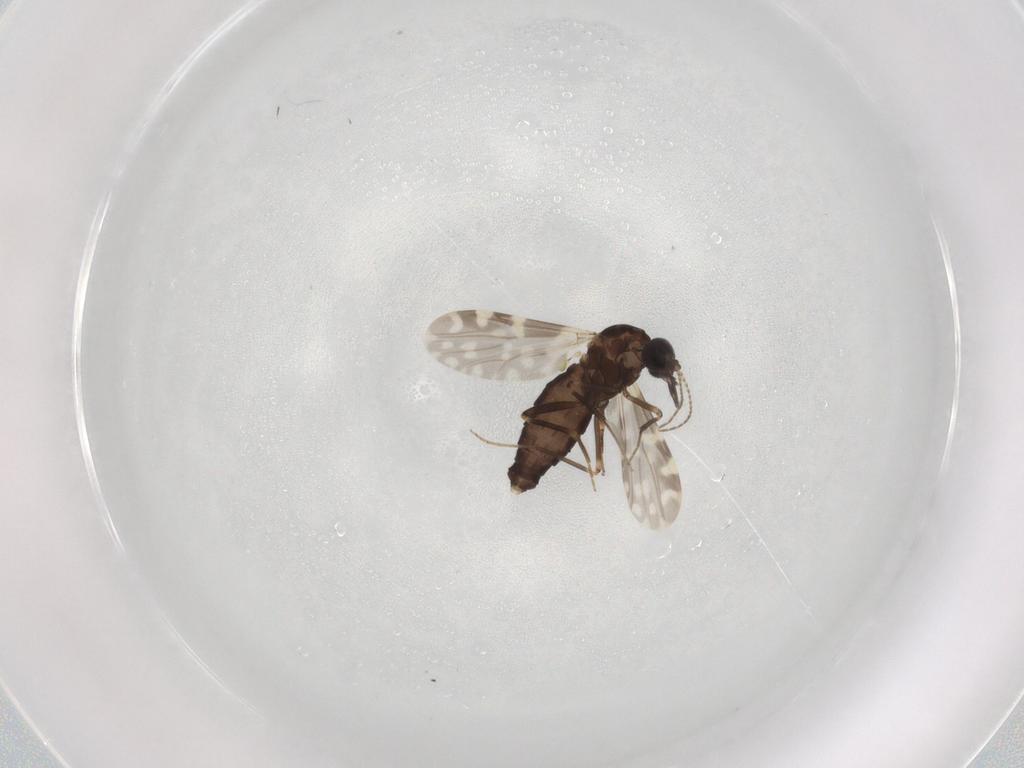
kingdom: Animalia
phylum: Arthropoda
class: Insecta
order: Diptera
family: Ceratopogonidae
